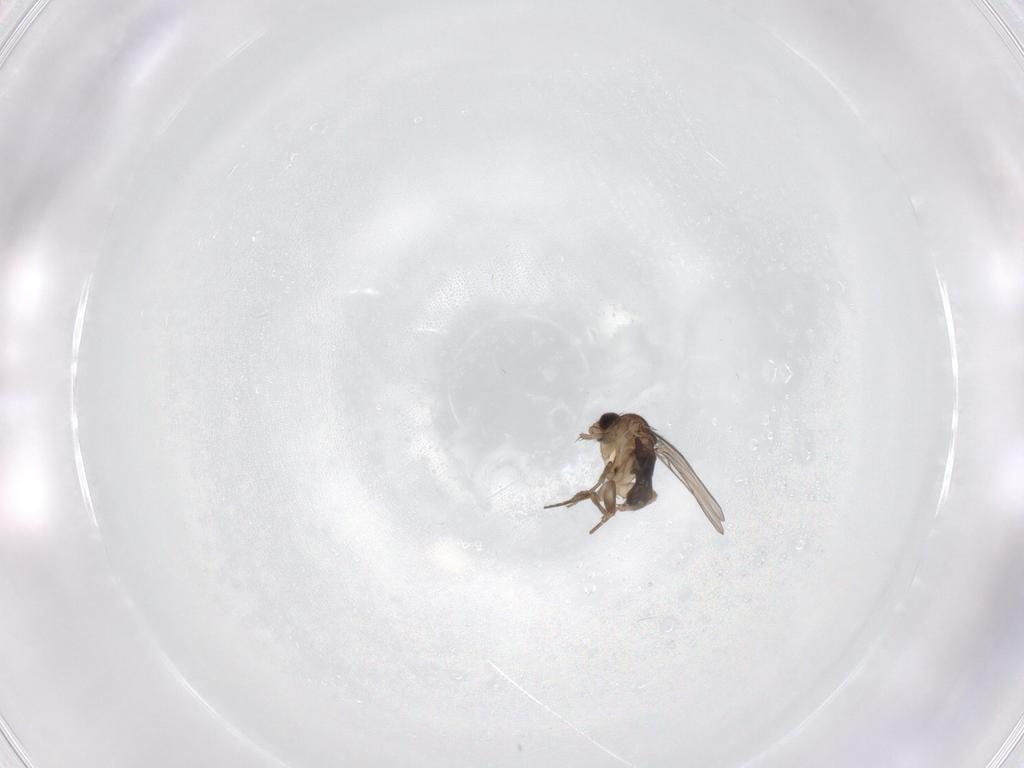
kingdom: Animalia
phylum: Arthropoda
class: Insecta
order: Diptera
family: Phoridae
